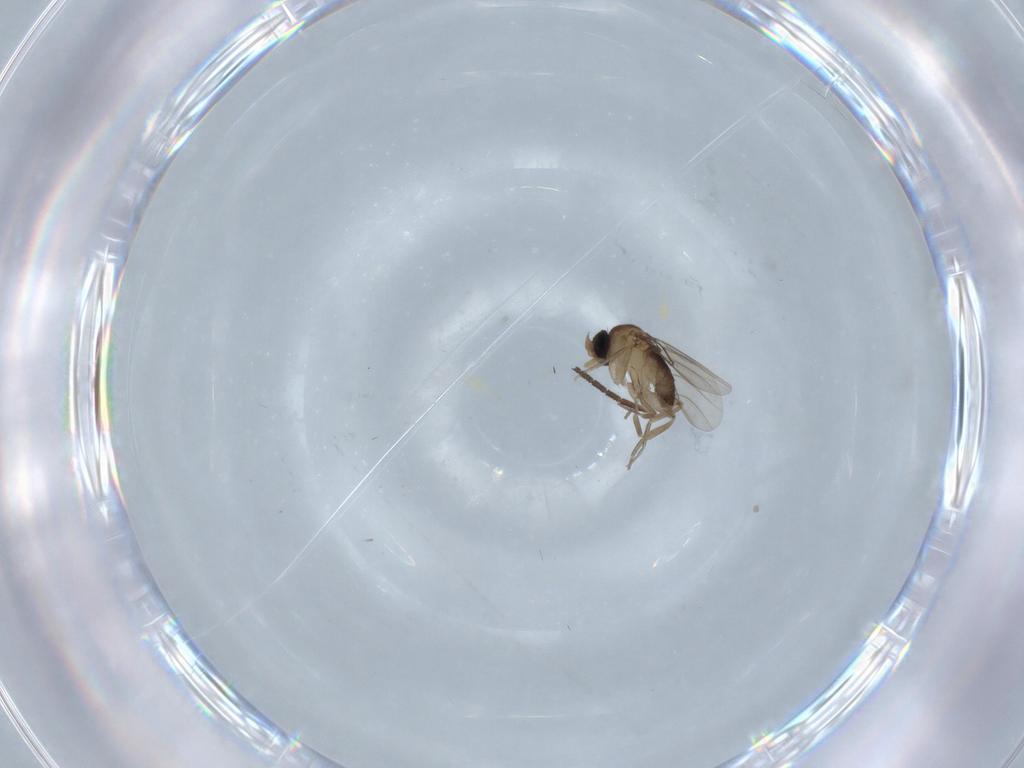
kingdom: Animalia
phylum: Arthropoda
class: Insecta
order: Diptera
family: Sciaridae
